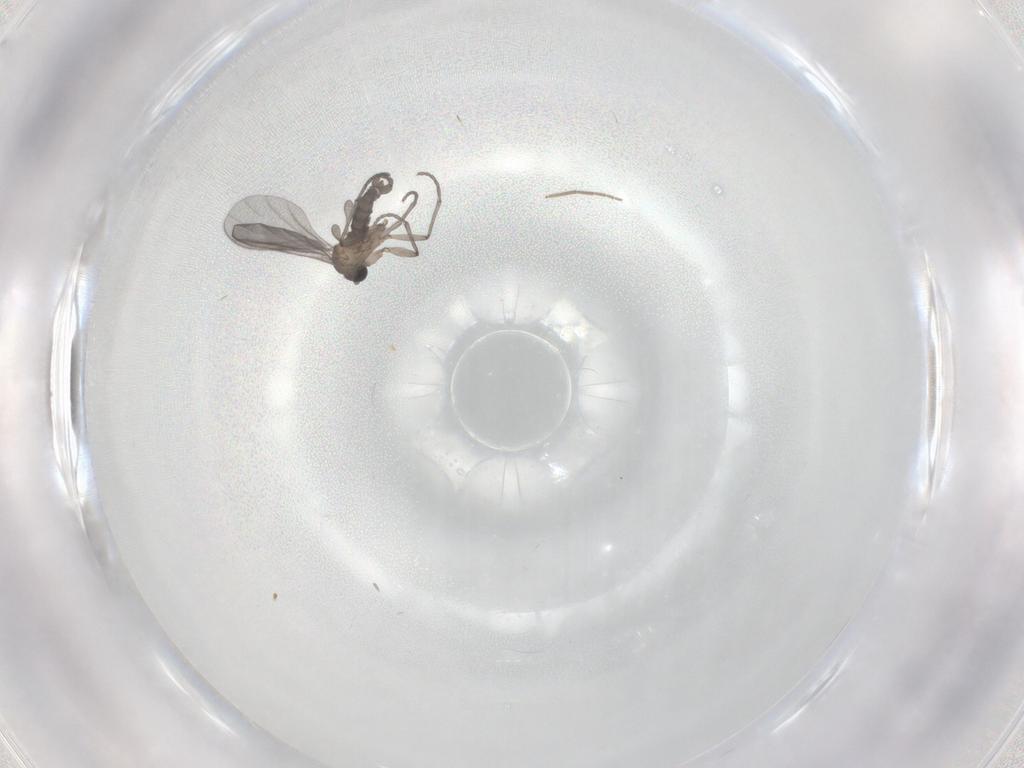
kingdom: Animalia
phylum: Arthropoda
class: Insecta
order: Diptera
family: Chironomidae
